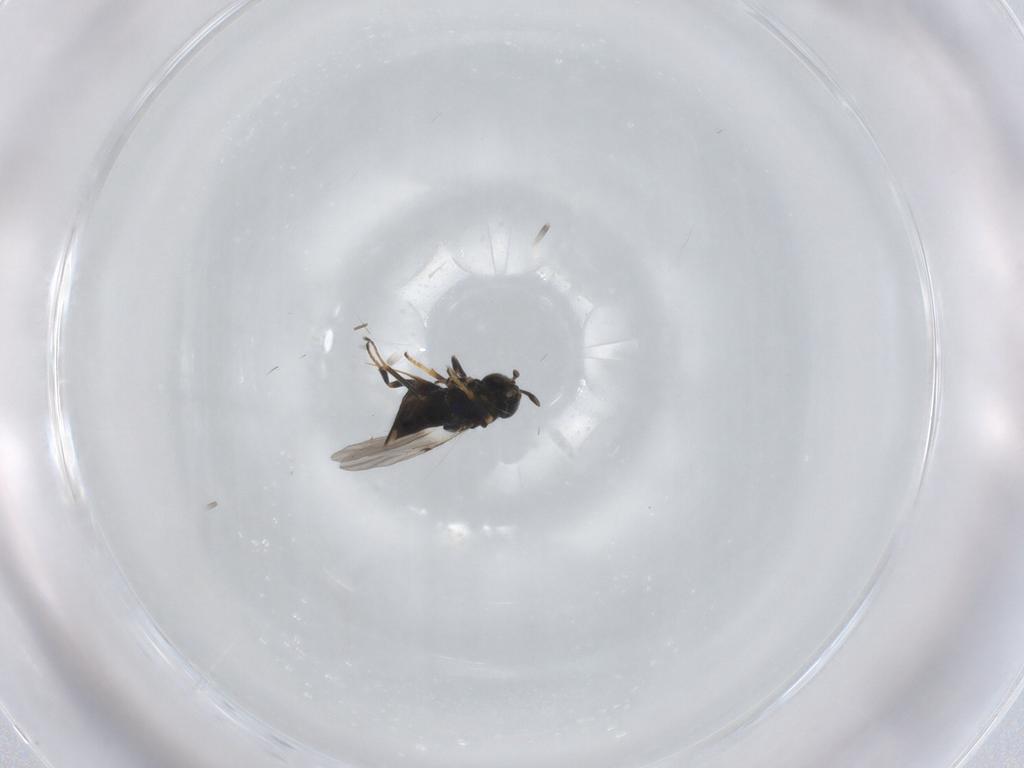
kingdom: Animalia
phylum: Arthropoda
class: Insecta
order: Hymenoptera
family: Encyrtidae
